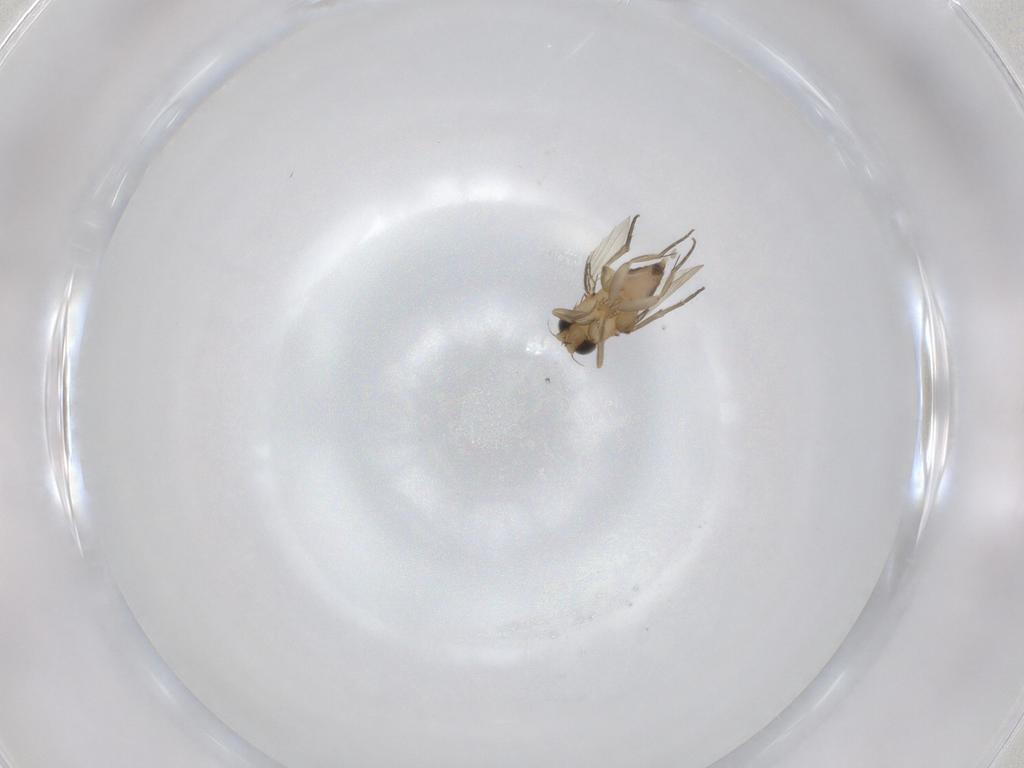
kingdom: Animalia
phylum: Arthropoda
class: Insecta
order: Diptera
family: Phoridae
